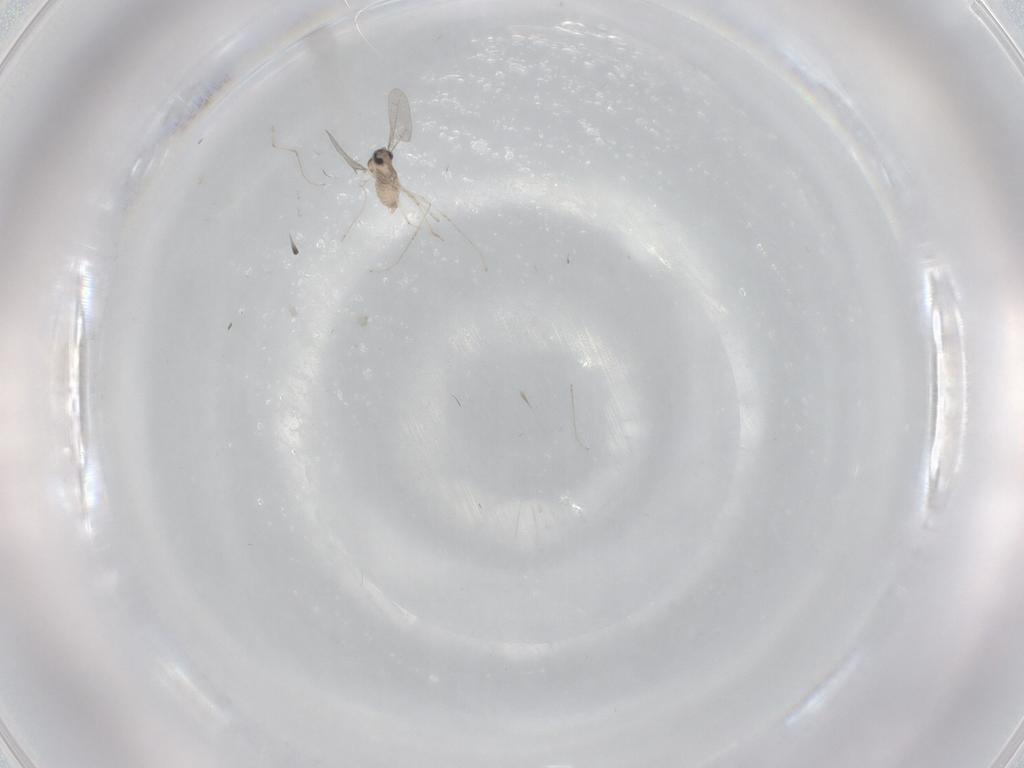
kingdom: Animalia
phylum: Arthropoda
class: Insecta
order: Diptera
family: Cecidomyiidae
